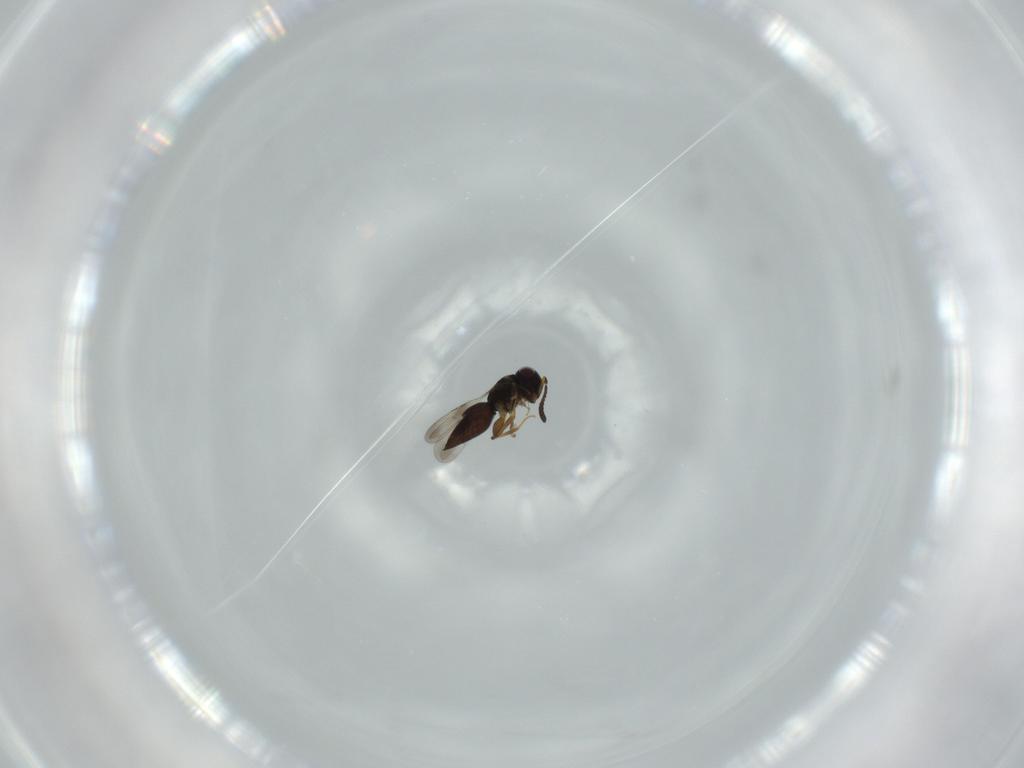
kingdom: Animalia
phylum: Arthropoda
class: Insecta
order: Hymenoptera
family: Ceraphronidae
